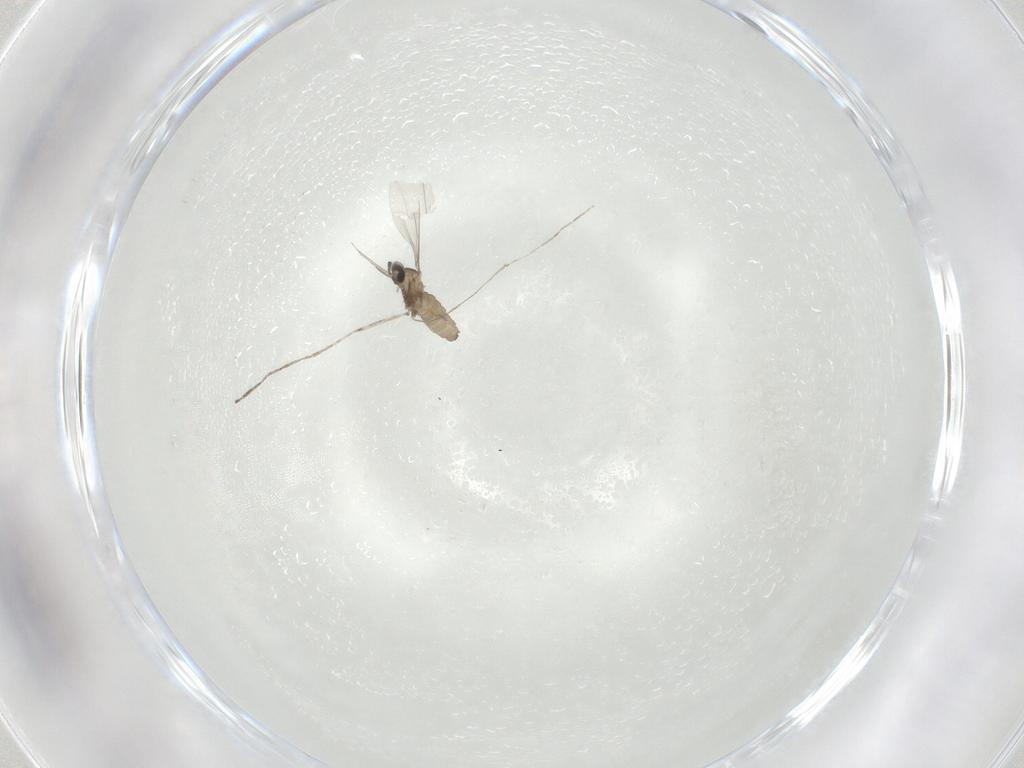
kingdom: Animalia
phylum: Arthropoda
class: Insecta
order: Diptera
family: Cecidomyiidae
